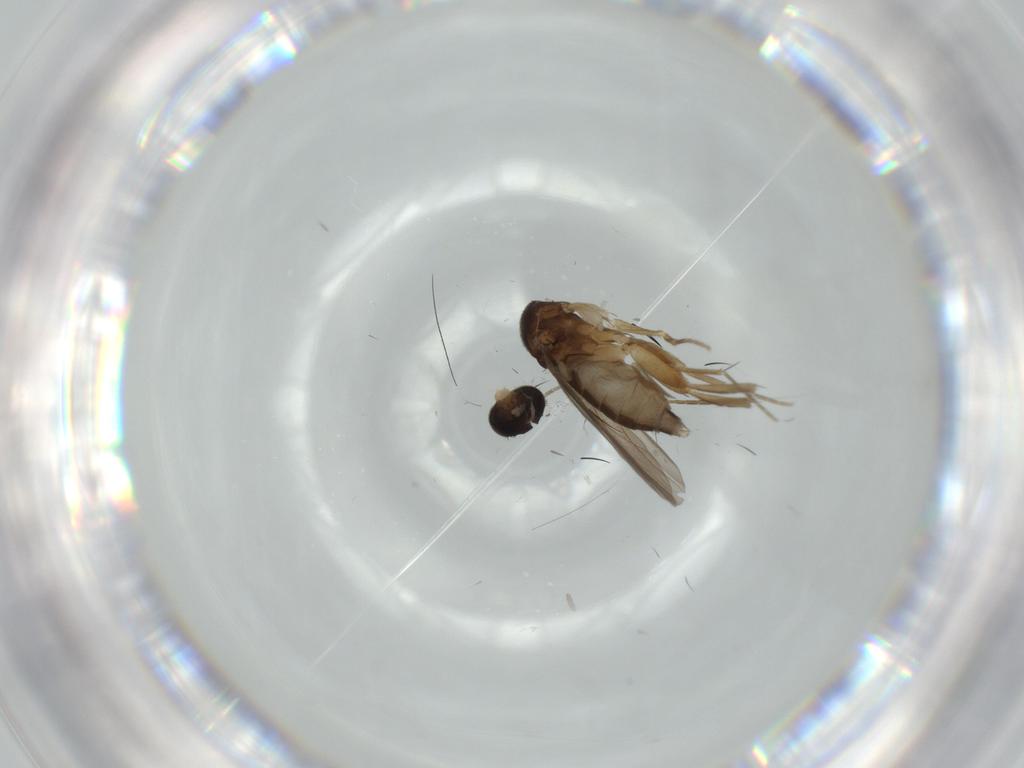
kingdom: Animalia
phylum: Arthropoda
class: Insecta
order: Diptera
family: Phoridae
